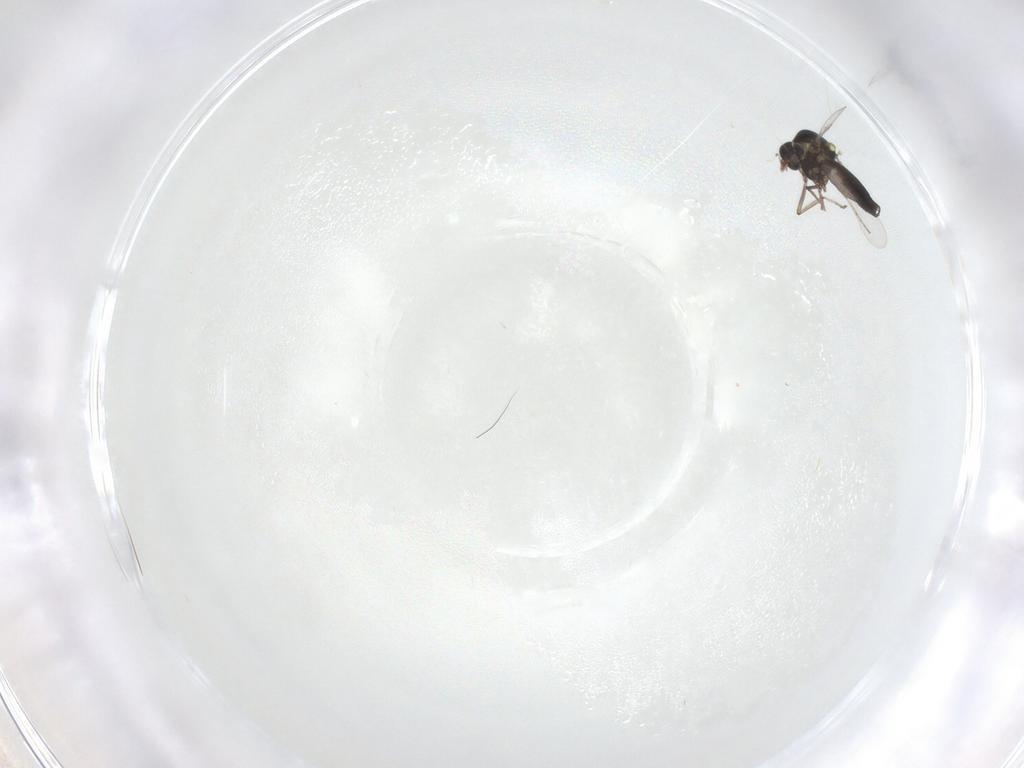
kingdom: Animalia
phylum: Arthropoda
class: Insecta
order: Diptera
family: Ceratopogonidae
